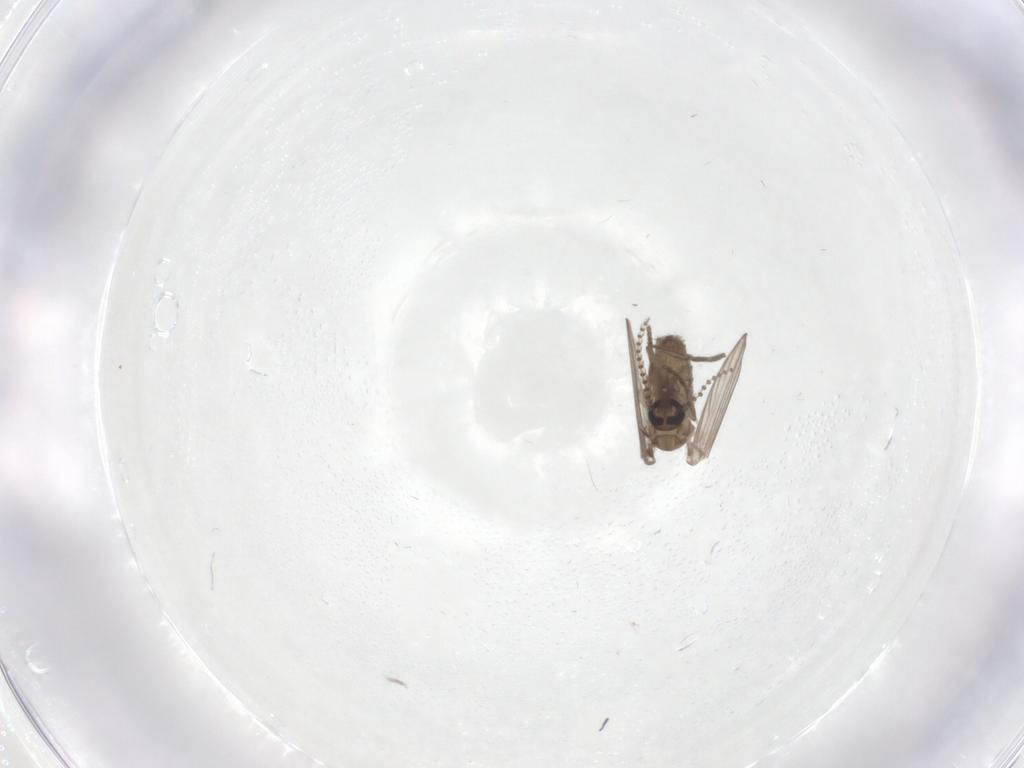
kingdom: Animalia
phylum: Arthropoda
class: Insecta
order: Diptera
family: Psychodidae
